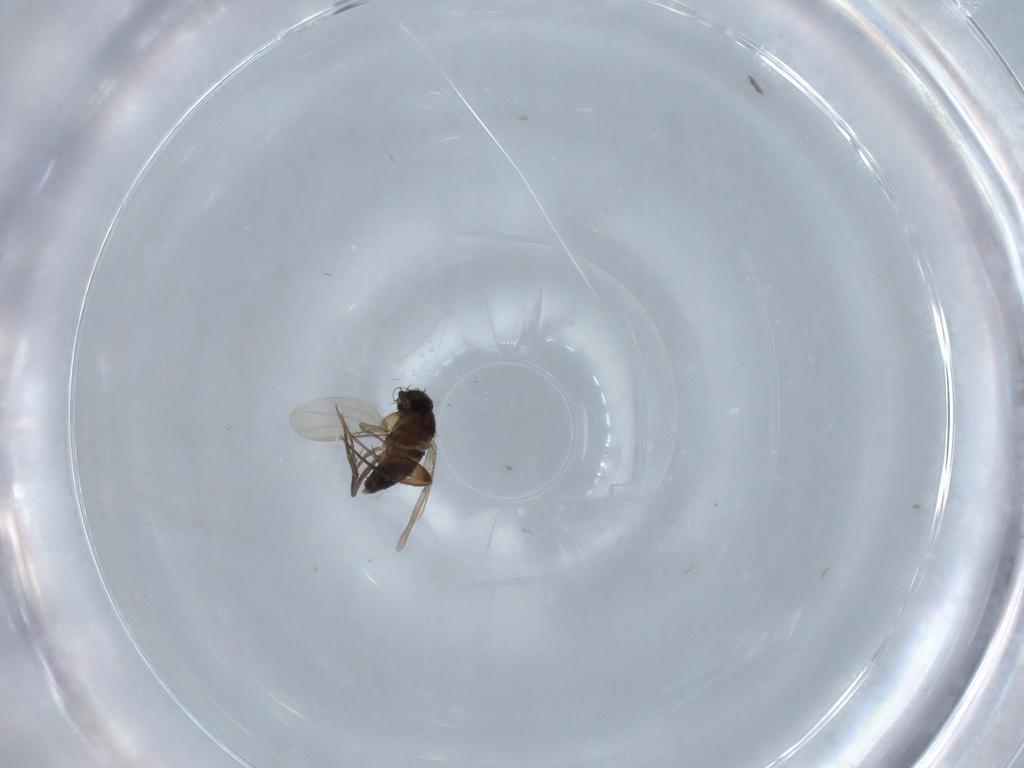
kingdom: Animalia
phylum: Arthropoda
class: Insecta
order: Diptera
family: Phoridae
